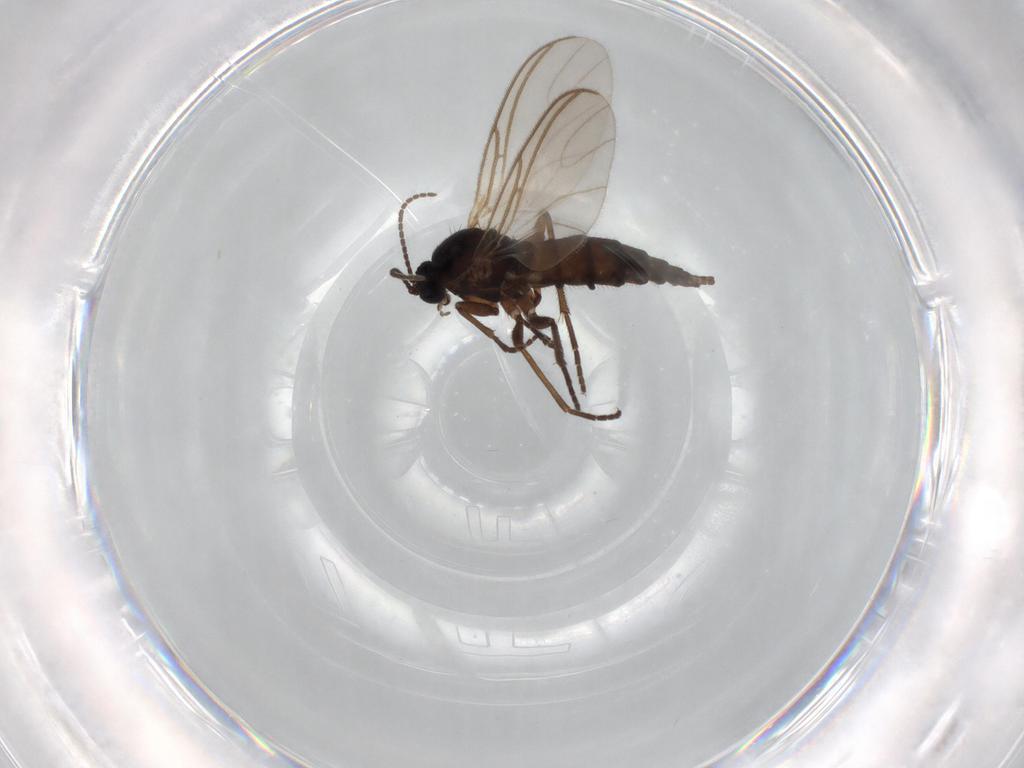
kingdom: Animalia
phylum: Arthropoda
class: Insecta
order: Diptera
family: Sciaridae
